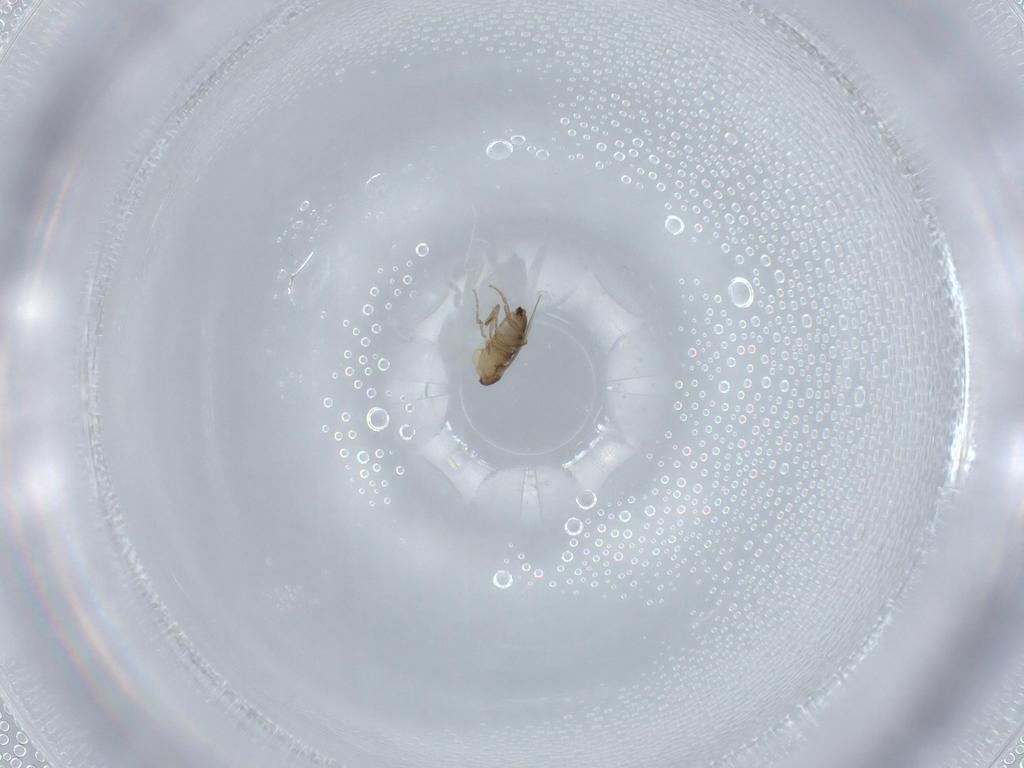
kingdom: Animalia
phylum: Arthropoda
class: Insecta
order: Diptera
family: Phoridae
